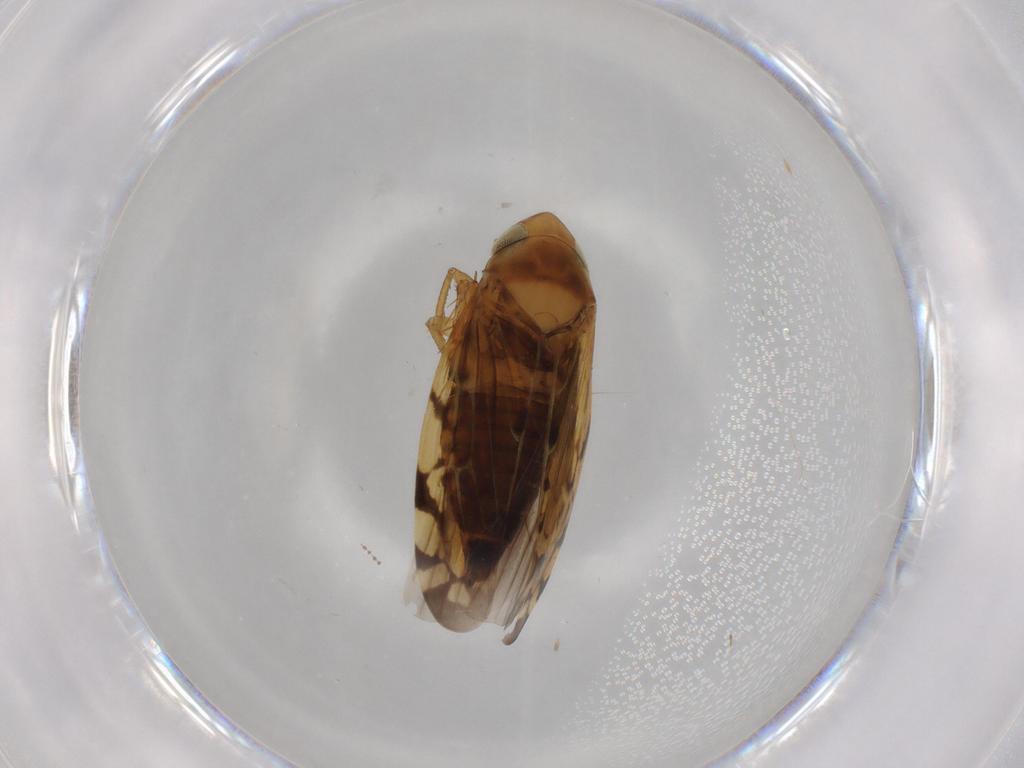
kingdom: Animalia
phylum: Arthropoda
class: Insecta
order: Hemiptera
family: Cicadellidae
